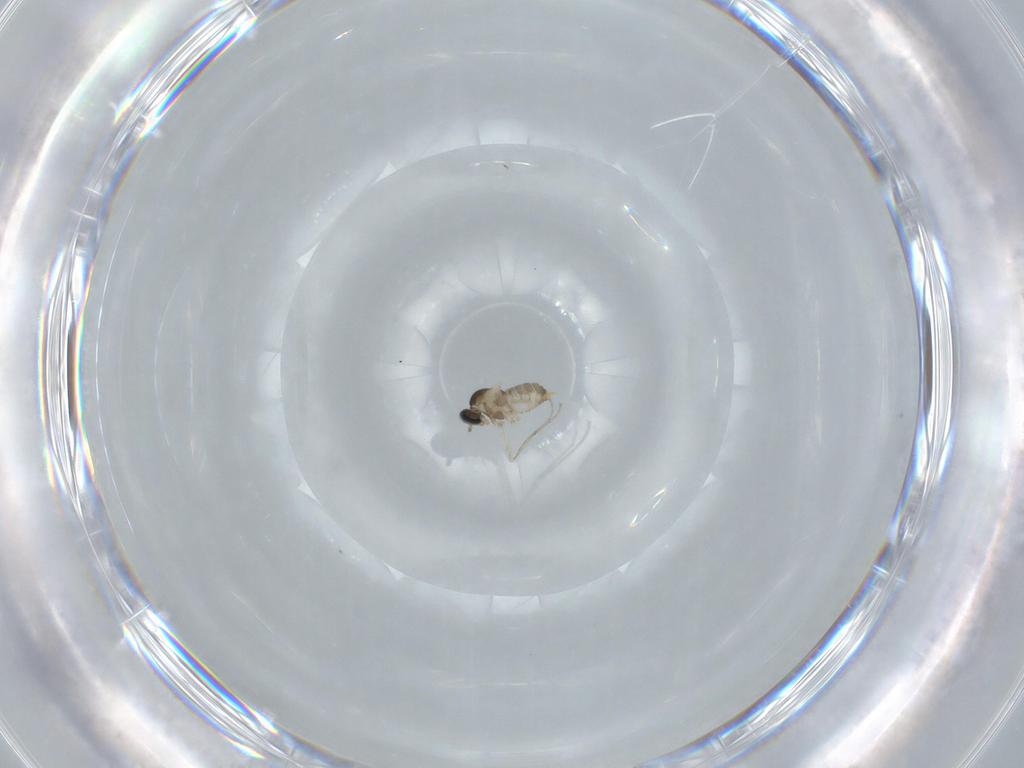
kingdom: Animalia
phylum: Arthropoda
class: Insecta
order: Diptera
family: Cecidomyiidae
